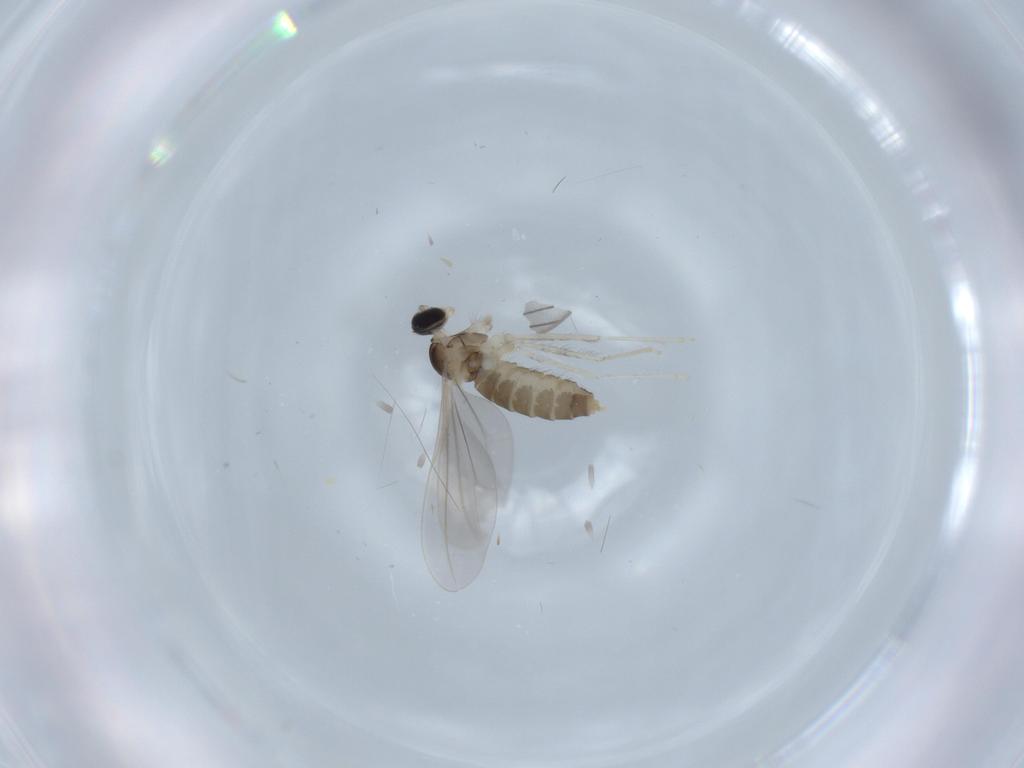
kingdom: Animalia
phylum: Arthropoda
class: Insecta
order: Diptera
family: Cecidomyiidae
